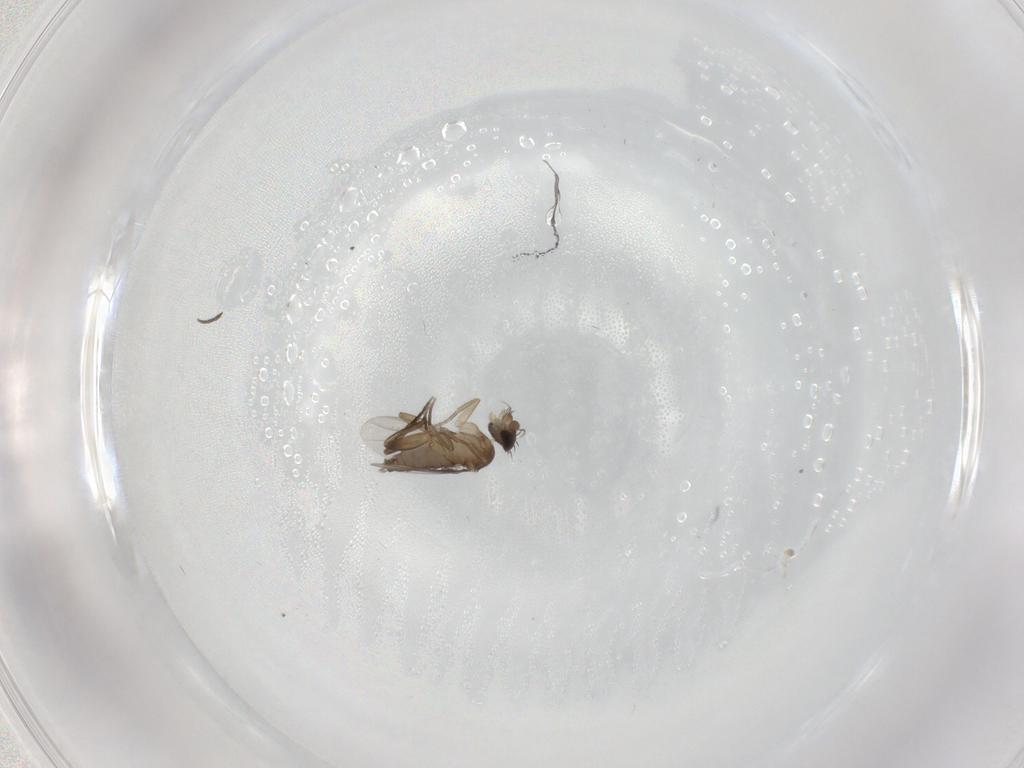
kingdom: Animalia
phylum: Arthropoda
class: Insecta
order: Diptera
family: Phoridae
